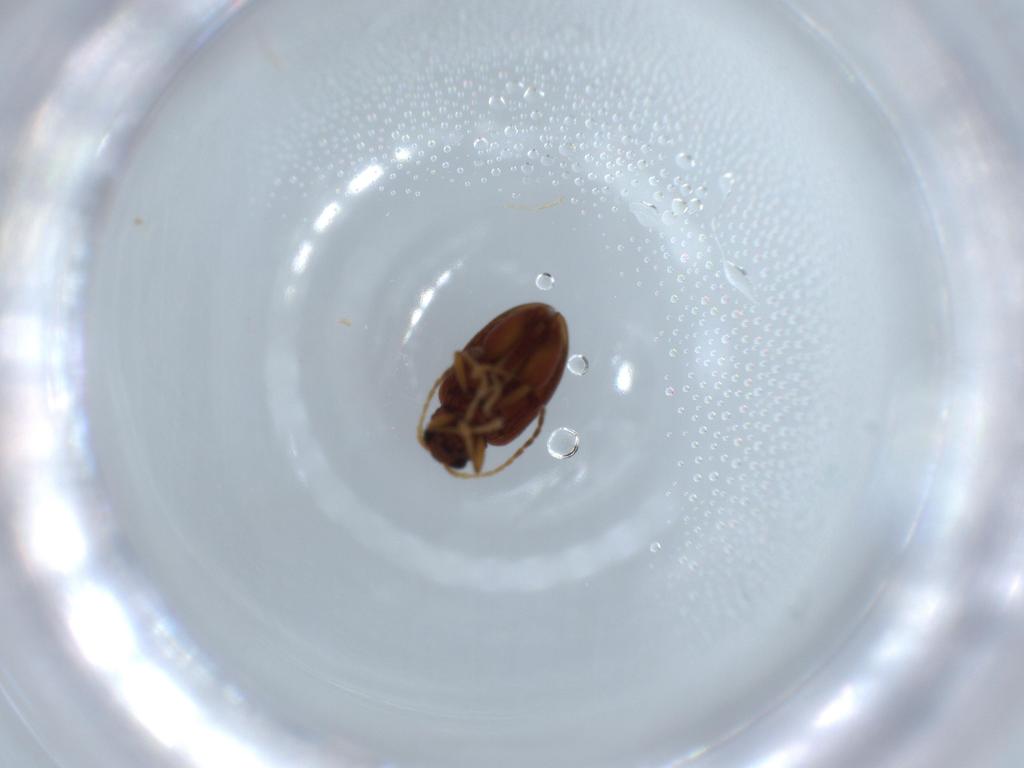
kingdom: Animalia
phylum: Arthropoda
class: Insecta
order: Coleoptera
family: Chrysomelidae
